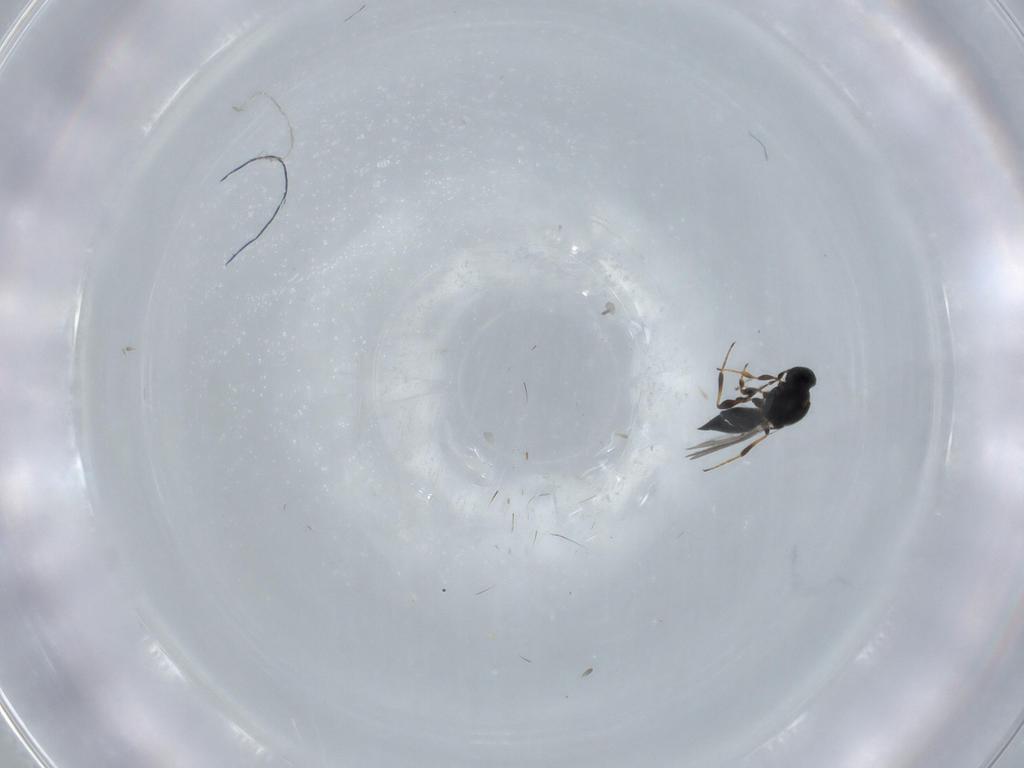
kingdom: Animalia
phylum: Arthropoda
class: Insecta
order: Hymenoptera
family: Platygastridae
